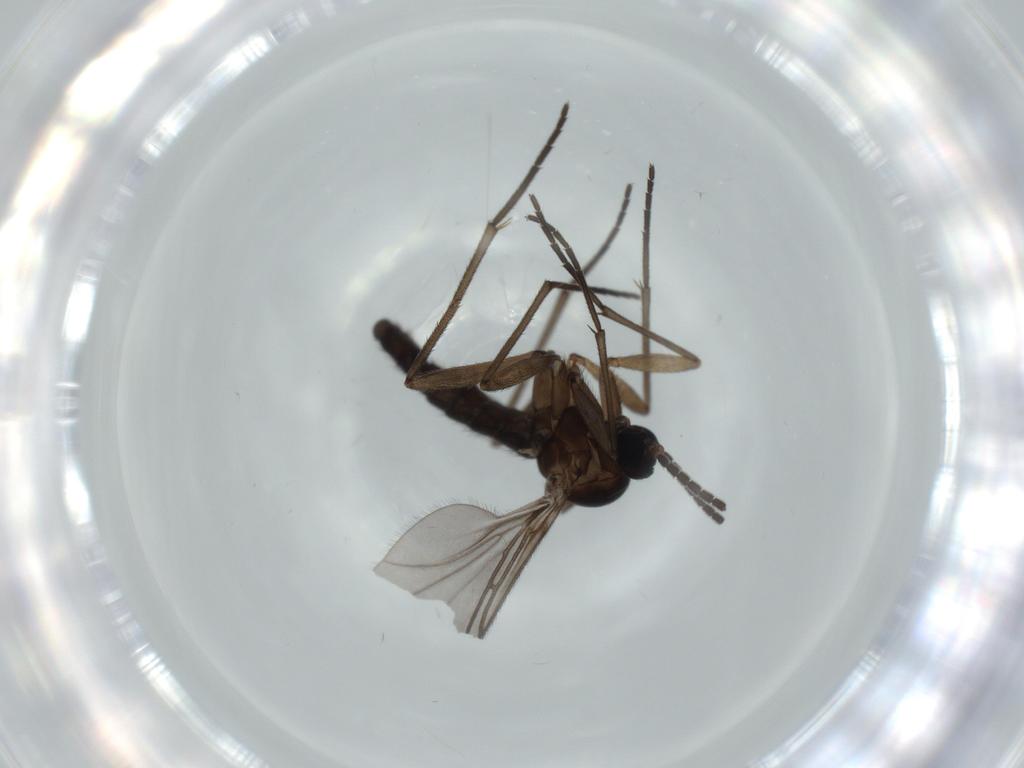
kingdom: Animalia
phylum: Arthropoda
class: Insecta
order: Diptera
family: Sciaridae
